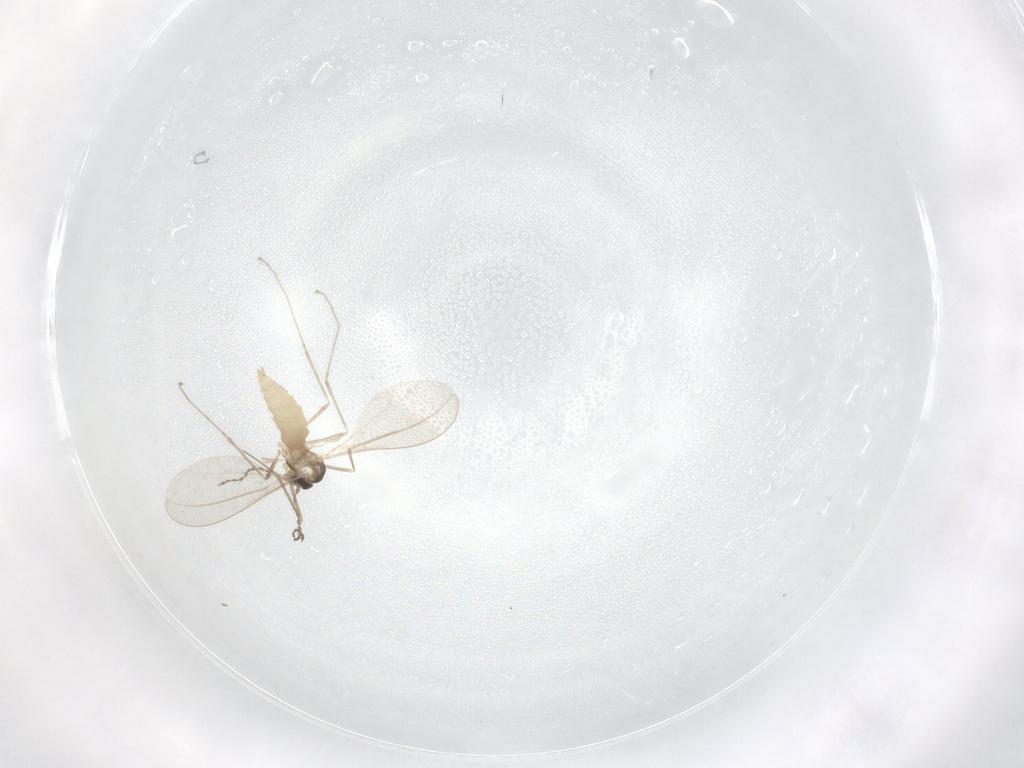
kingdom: Animalia
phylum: Arthropoda
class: Insecta
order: Diptera
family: Cecidomyiidae
